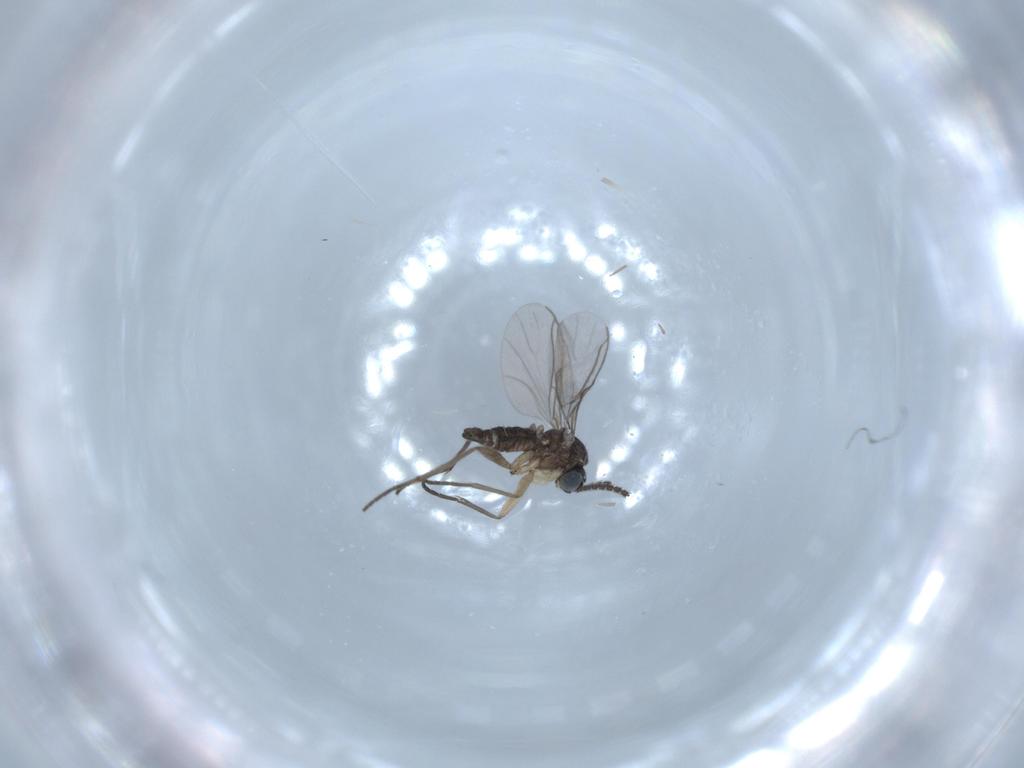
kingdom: Animalia
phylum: Arthropoda
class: Insecta
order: Diptera
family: Sciaridae
